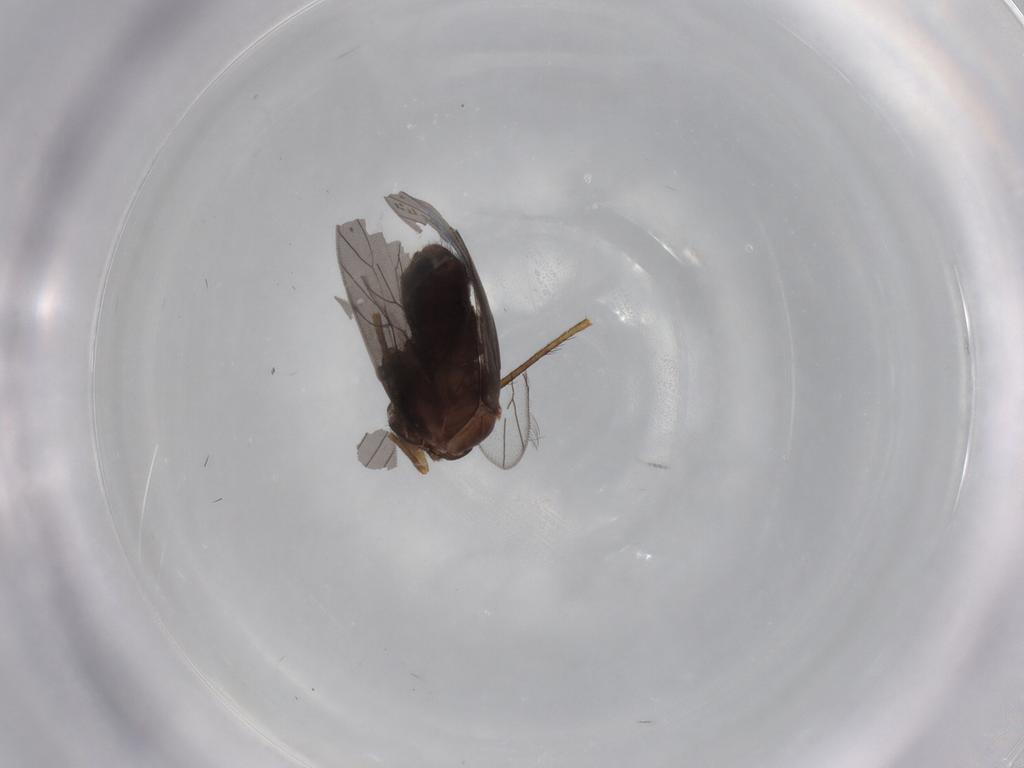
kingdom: Animalia
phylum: Arthropoda
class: Insecta
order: Psocodea
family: Lepidopsocidae
